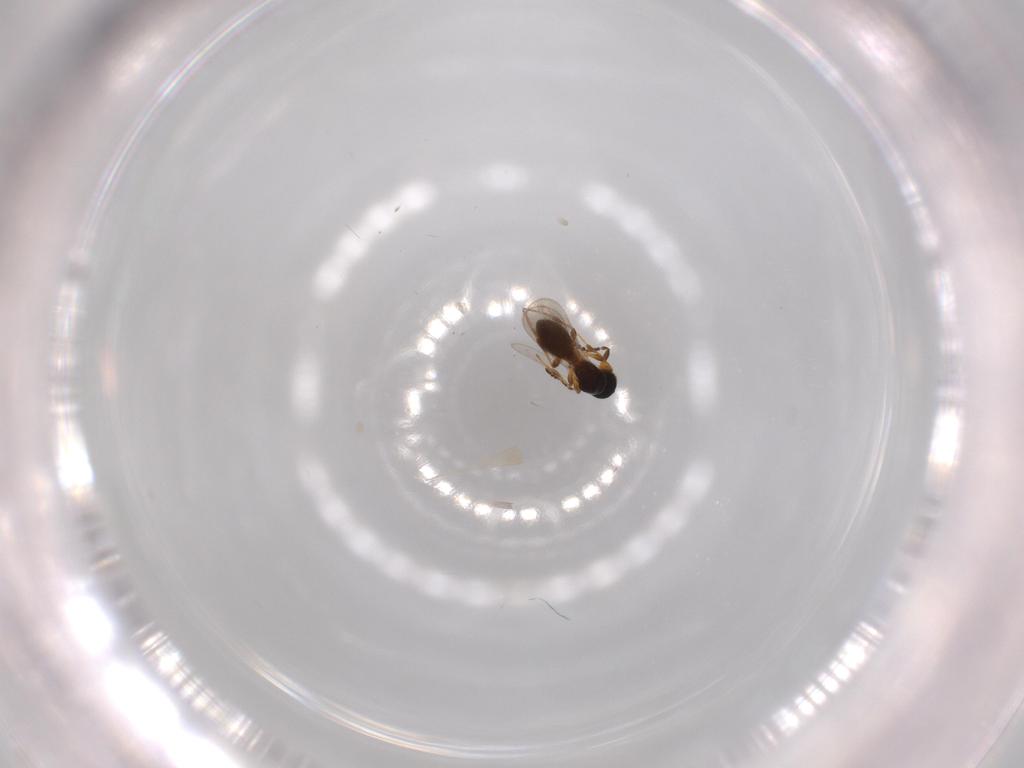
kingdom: Animalia
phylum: Arthropoda
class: Insecta
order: Hymenoptera
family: Platygastridae
